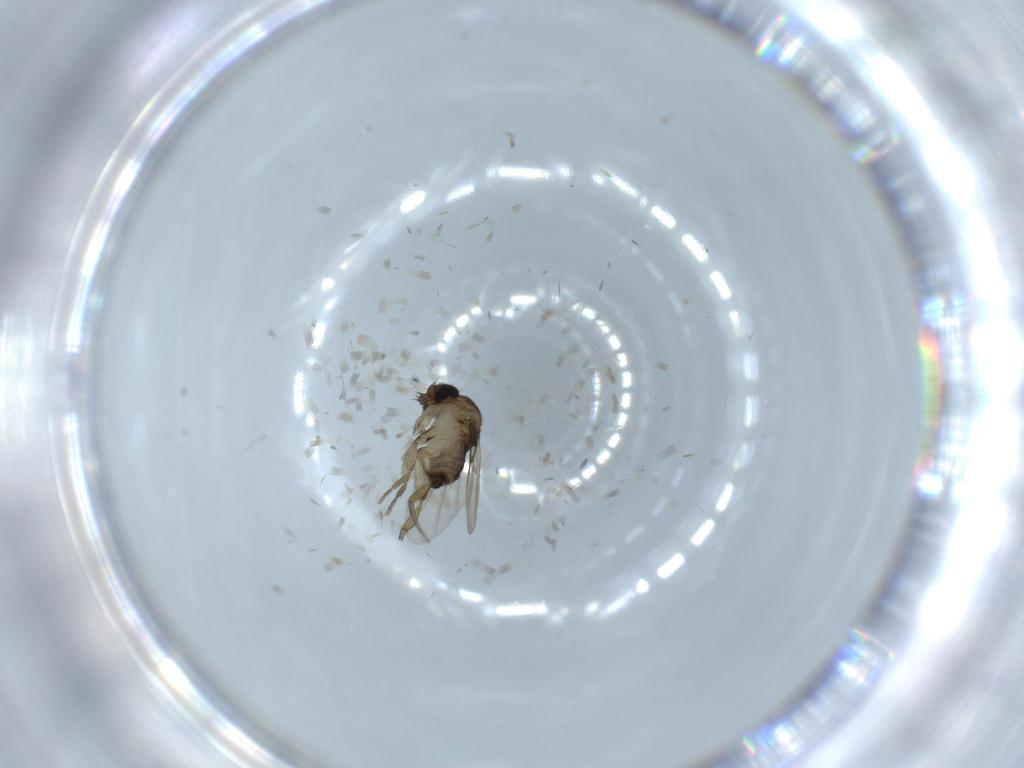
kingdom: Animalia
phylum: Arthropoda
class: Insecta
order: Diptera
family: Phoridae
